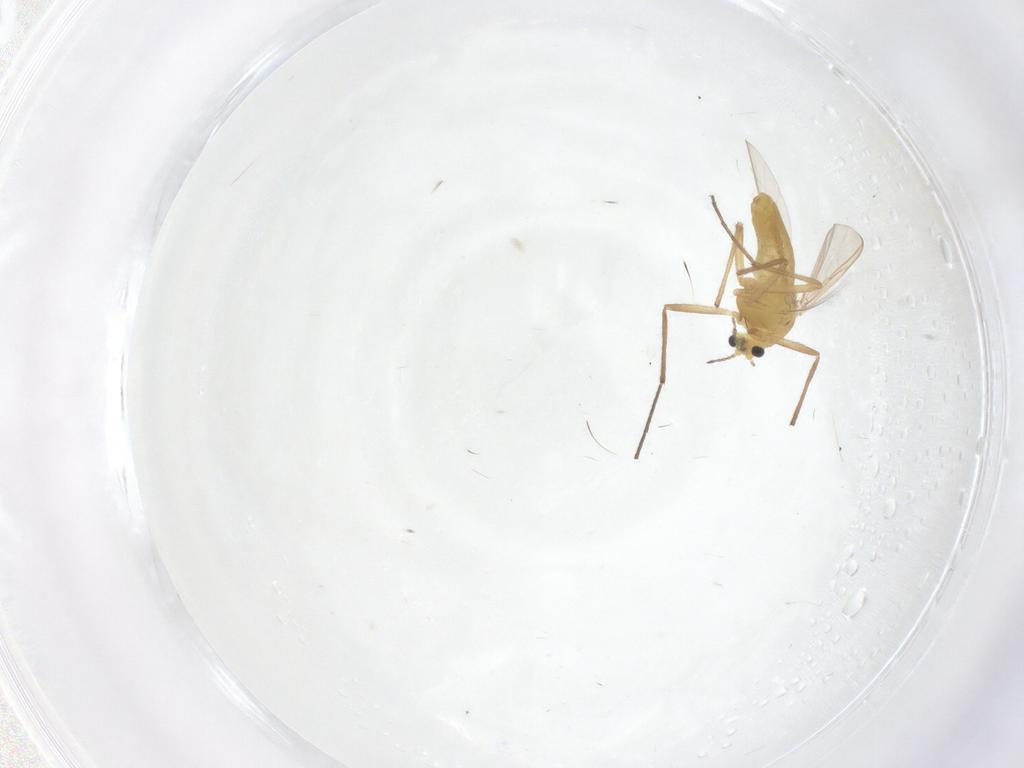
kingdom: Animalia
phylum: Arthropoda
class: Insecta
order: Diptera
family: Chironomidae
